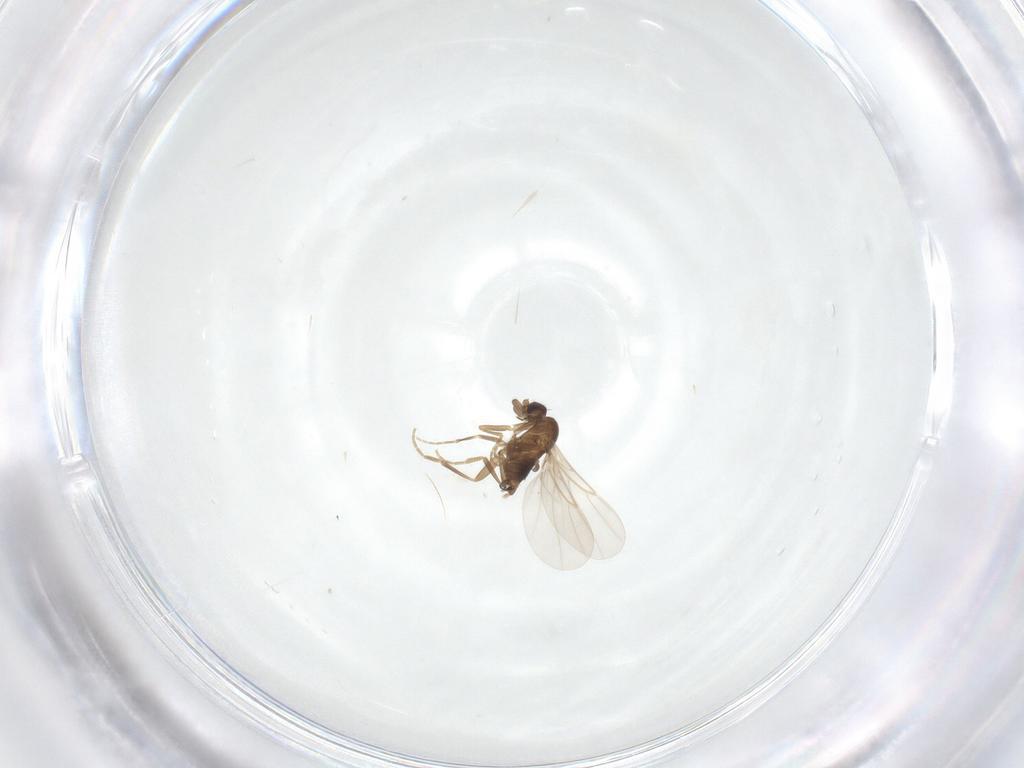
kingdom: Animalia
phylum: Arthropoda
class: Insecta
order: Diptera
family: Phoridae
